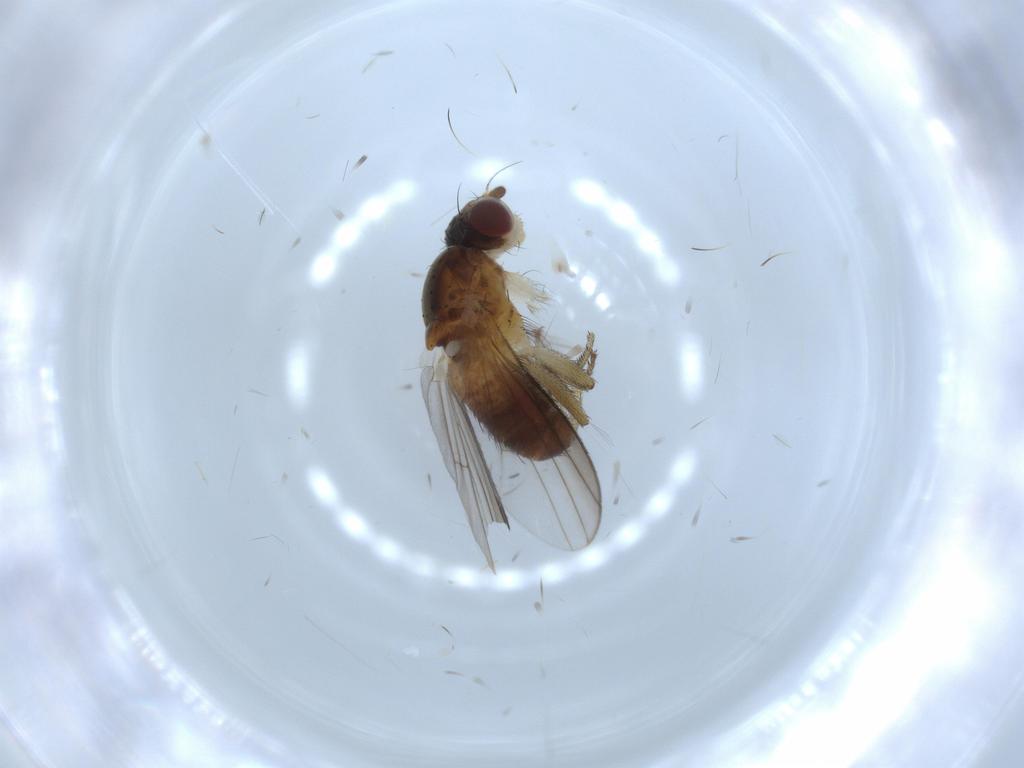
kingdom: Animalia
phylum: Arthropoda
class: Insecta
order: Diptera
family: Heleomyzidae
